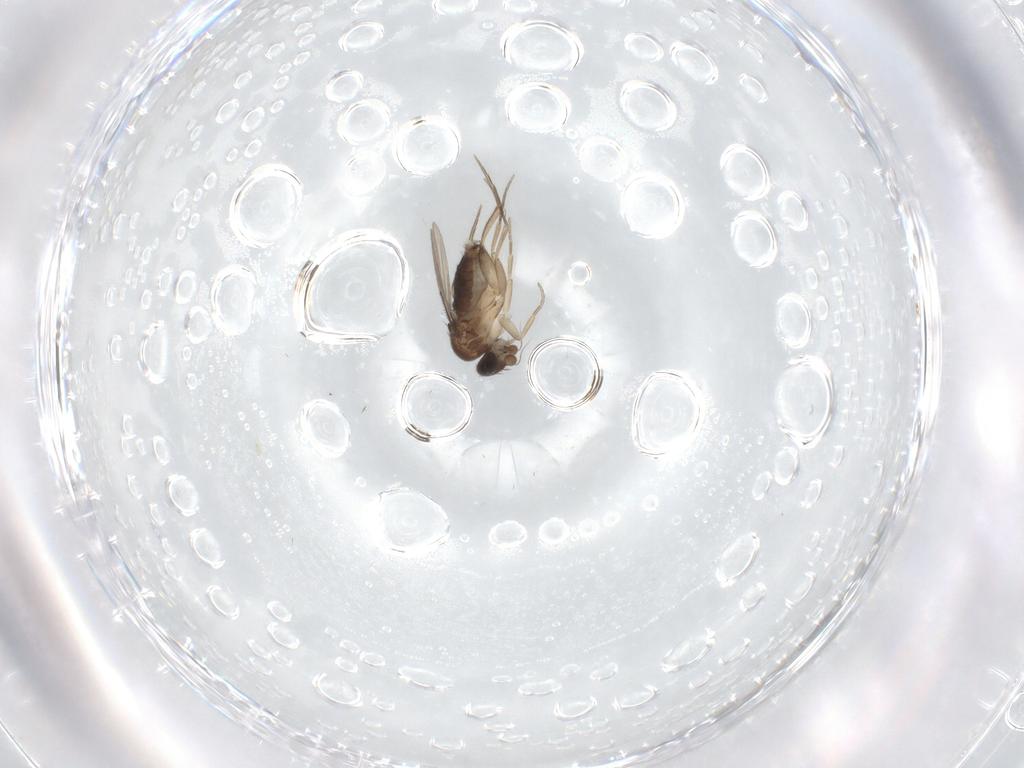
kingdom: Animalia
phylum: Arthropoda
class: Insecta
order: Diptera
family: Phoridae
